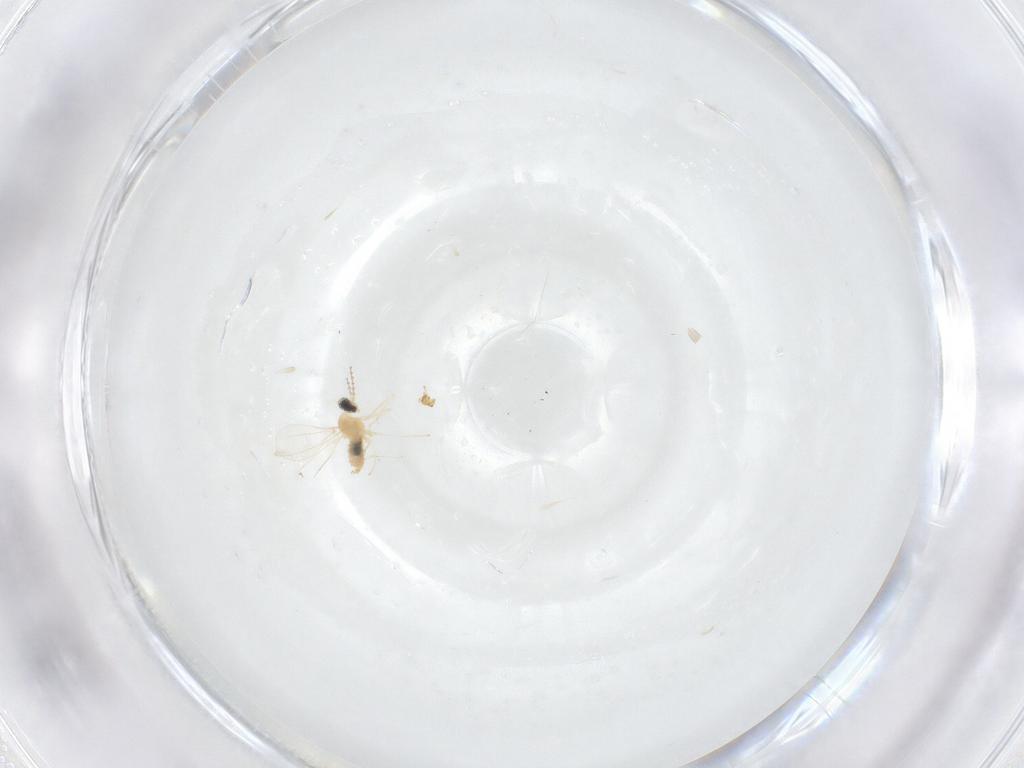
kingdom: Animalia
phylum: Arthropoda
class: Insecta
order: Diptera
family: Cecidomyiidae
